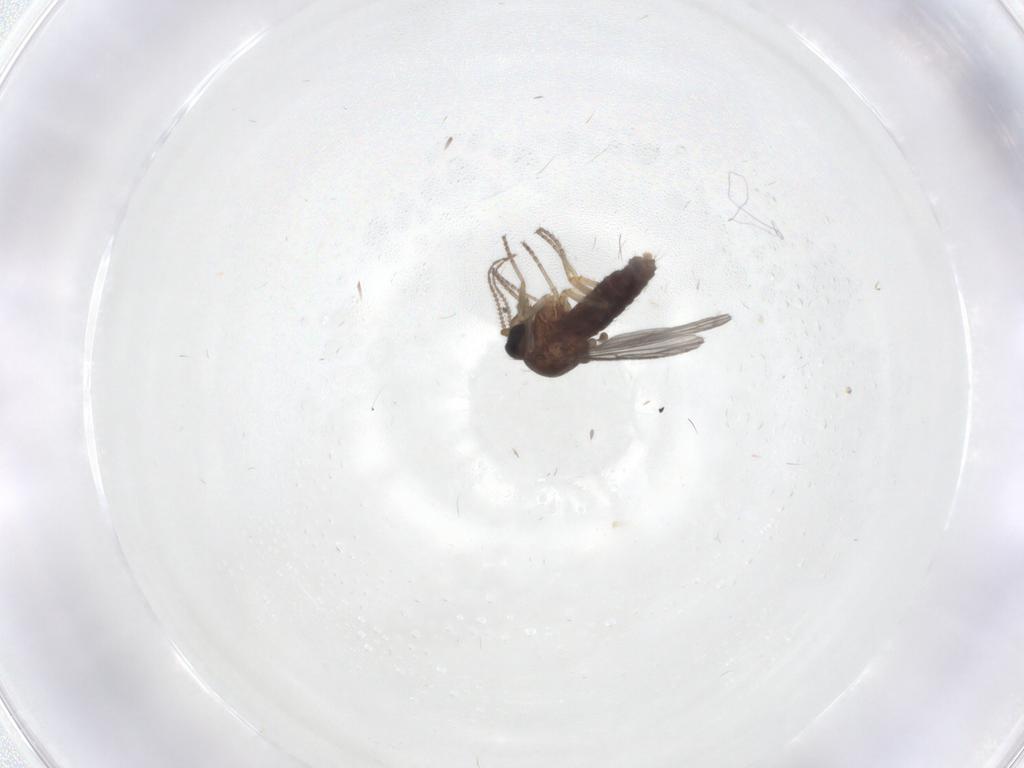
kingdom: Animalia
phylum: Arthropoda
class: Insecta
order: Diptera
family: Ceratopogonidae
